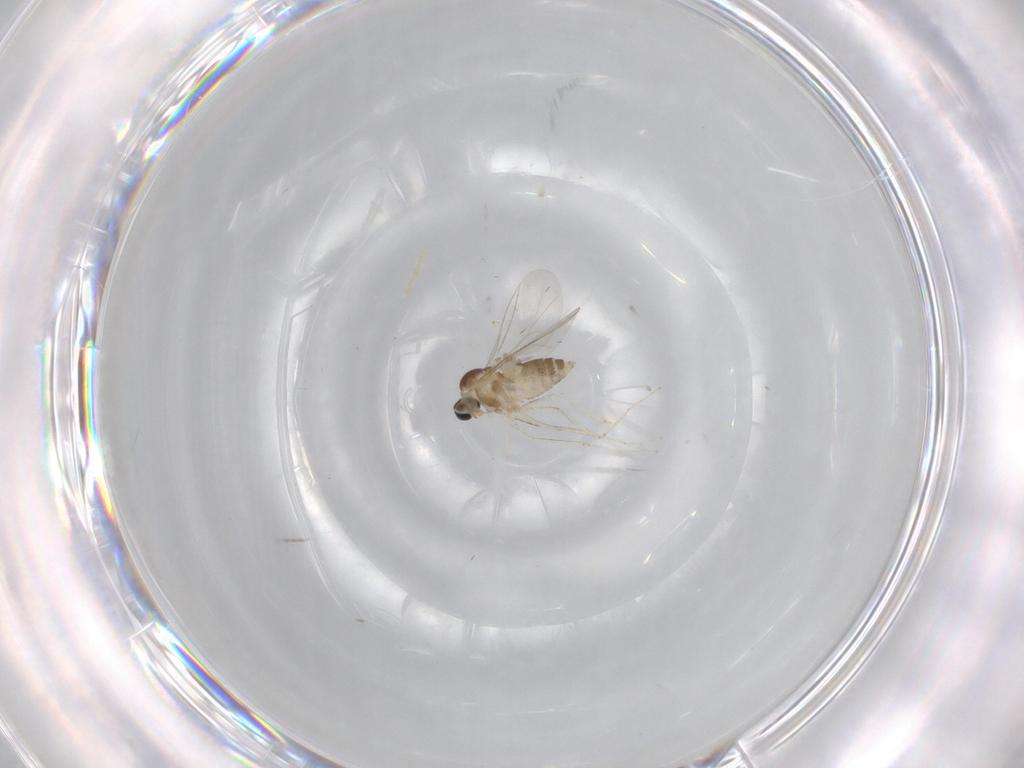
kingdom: Animalia
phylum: Arthropoda
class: Insecta
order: Diptera
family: Cecidomyiidae
